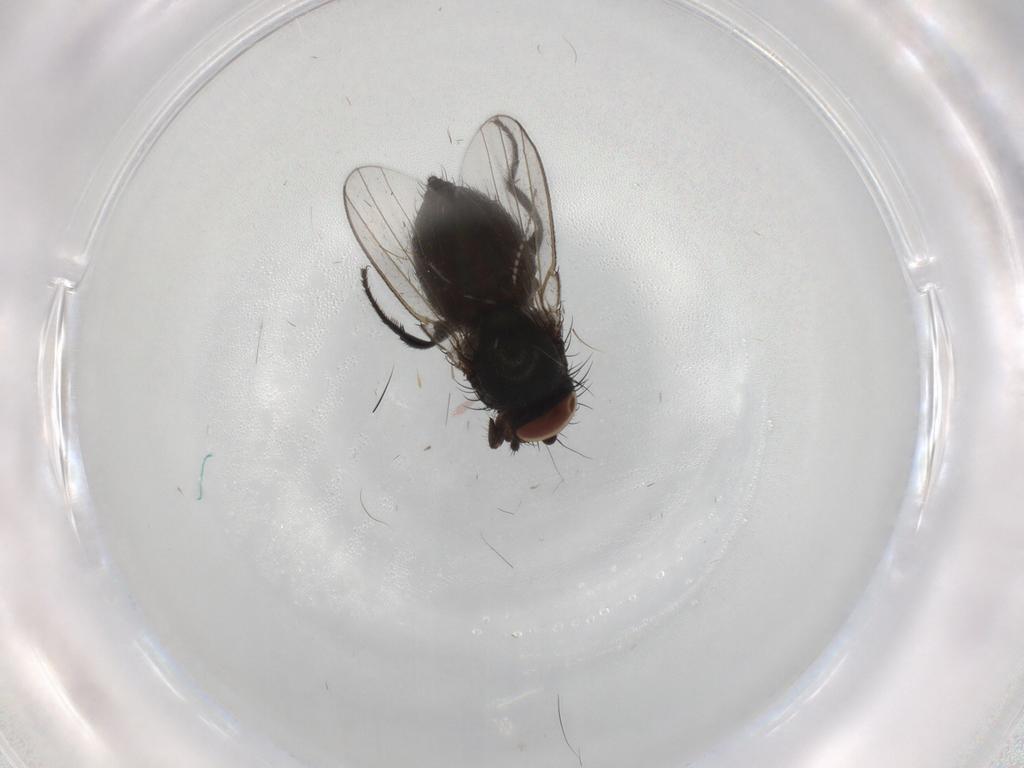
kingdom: Animalia
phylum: Arthropoda
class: Insecta
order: Diptera
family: Milichiidae
